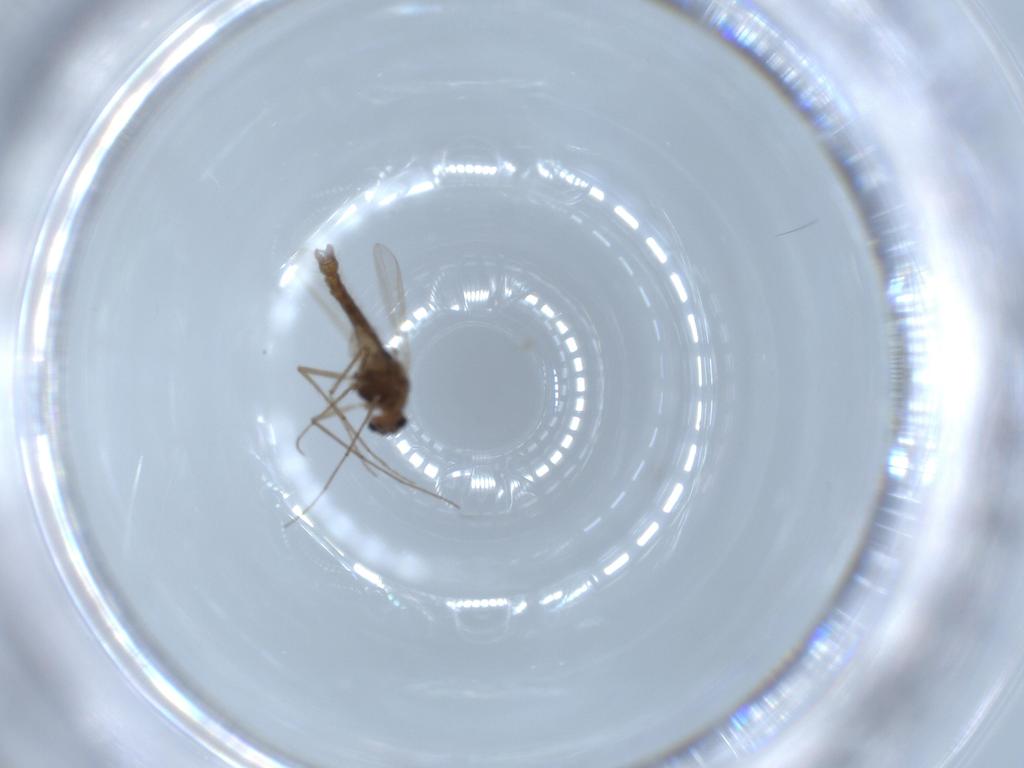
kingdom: Animalia
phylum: Arthropoda
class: Insecta
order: Diptera
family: Chironomidae
